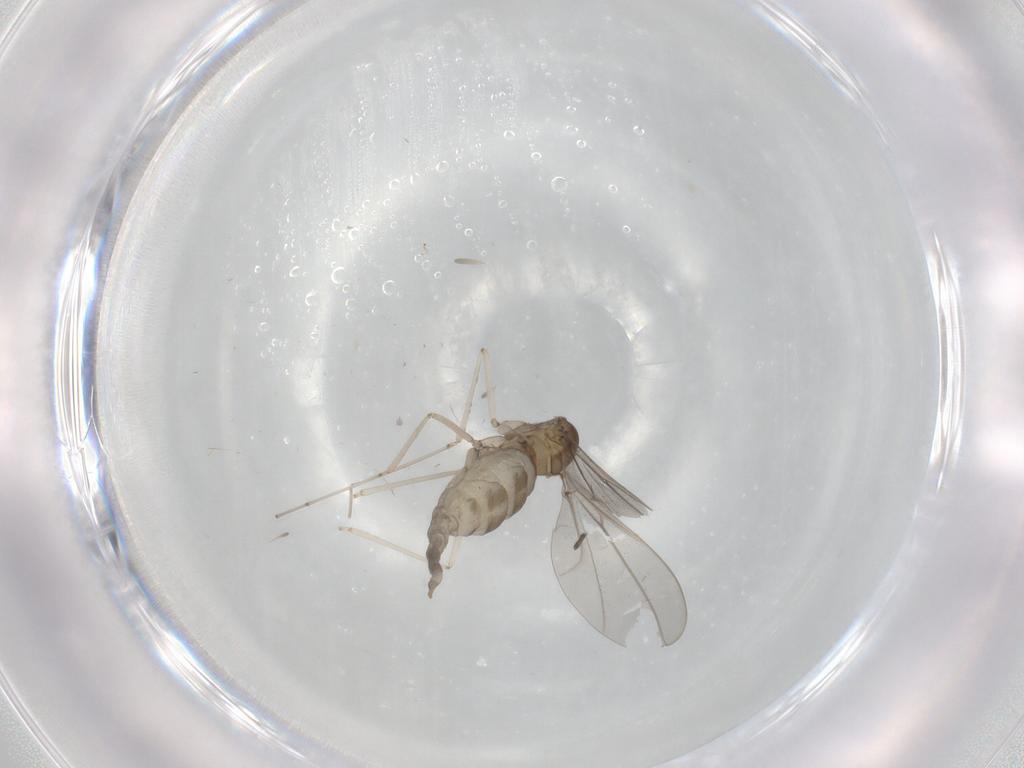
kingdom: Animalia
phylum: Arthropoda
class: Insecta
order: Diptera
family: Cecidomyiidae
